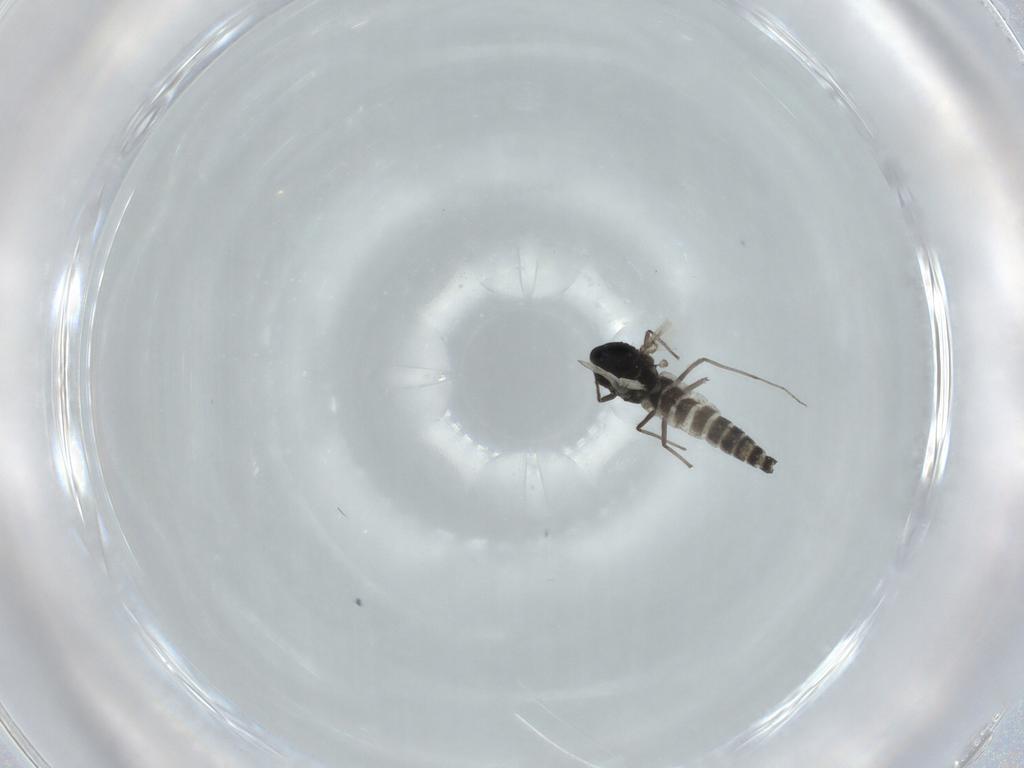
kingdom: Animalia
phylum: Arthropoda
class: Insecta
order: Diptera
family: Chironomidae
